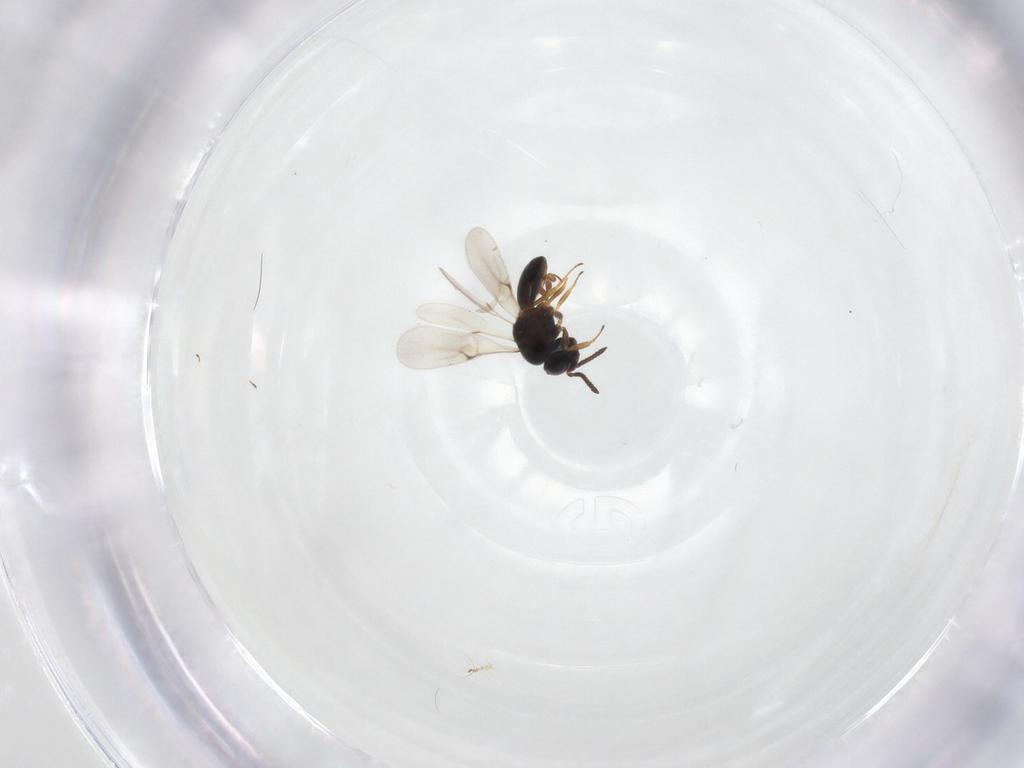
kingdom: Animalia
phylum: Arthropoda
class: Insecta
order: Hymenoptera
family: Scelionidae
